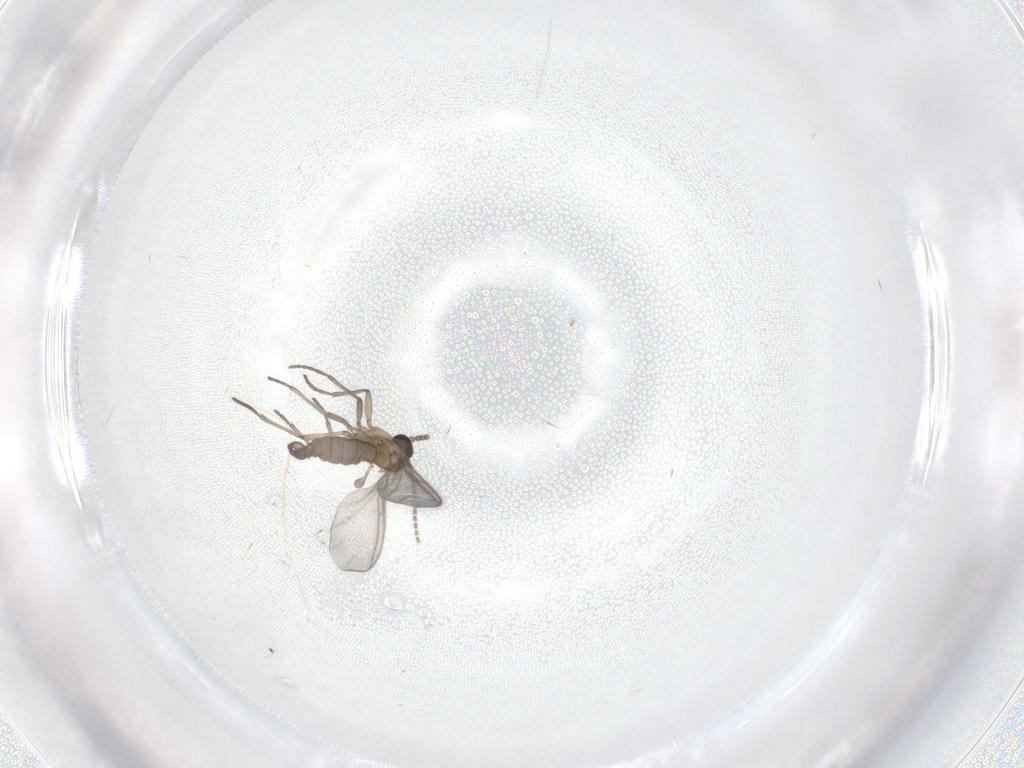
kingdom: Animalia
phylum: Arthropoda
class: Insecta
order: Diptera
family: Sciaridae
